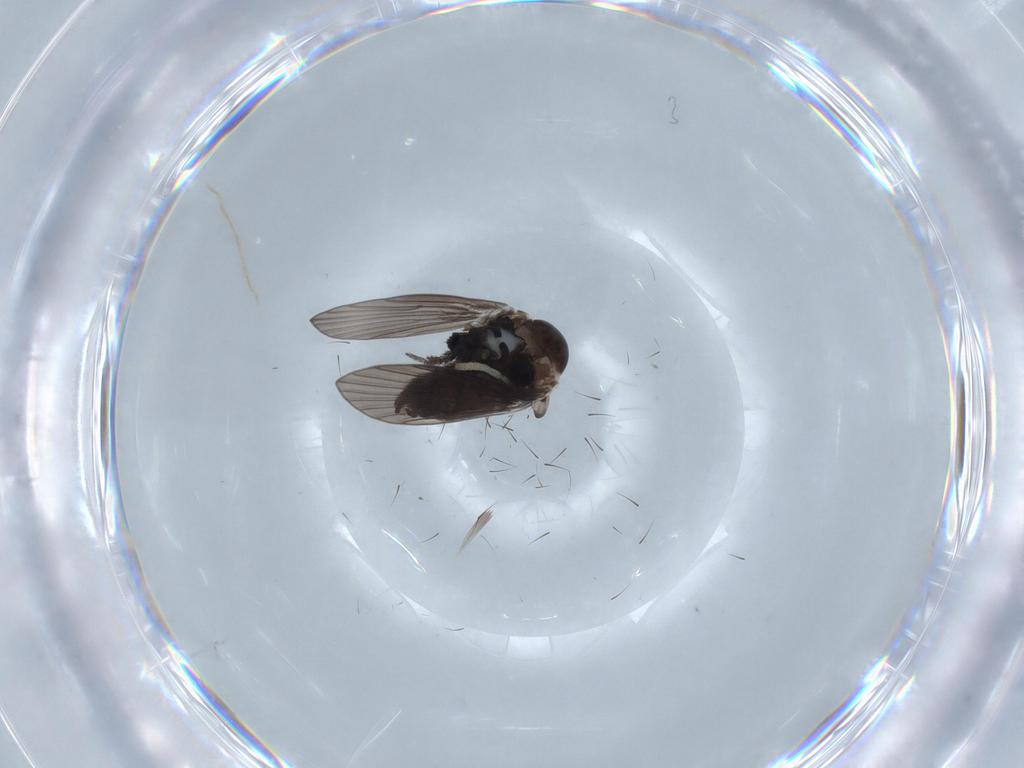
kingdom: Animalia
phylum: Arthropoda
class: Insecta
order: Diptera
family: Psychodidae
